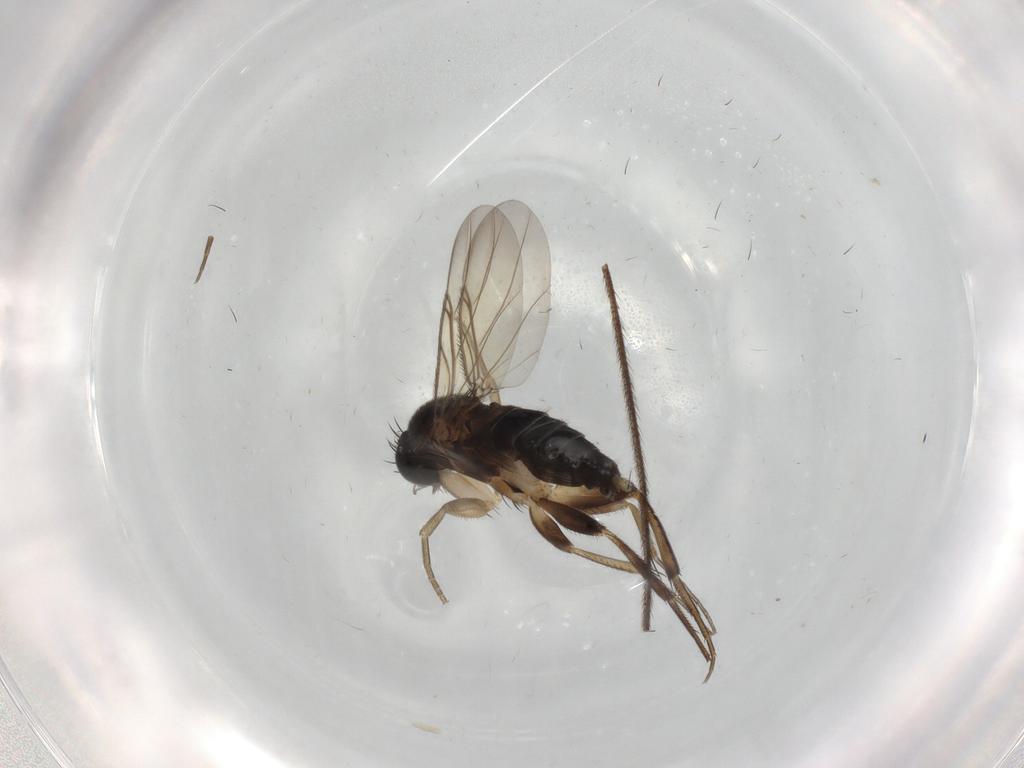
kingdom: Animalia
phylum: Arthropoda
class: Insecta
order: Diptera
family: Phoridae
